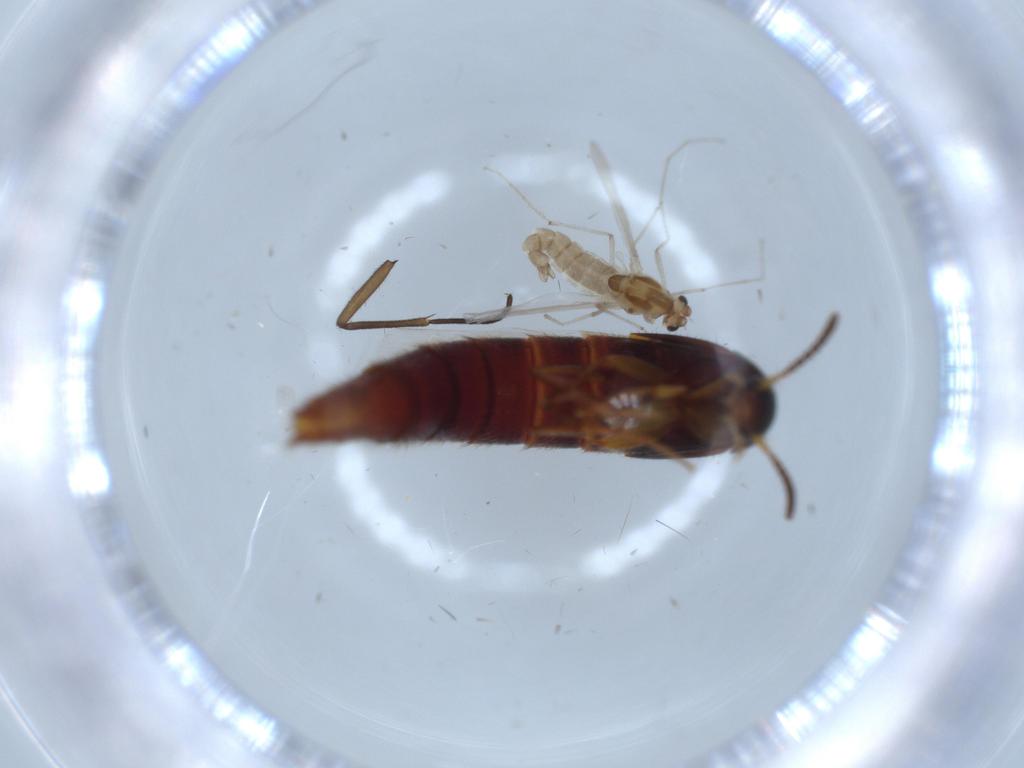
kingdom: Animalia
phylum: Arthropoda
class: Insecta
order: Diptera
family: Chironomidae
